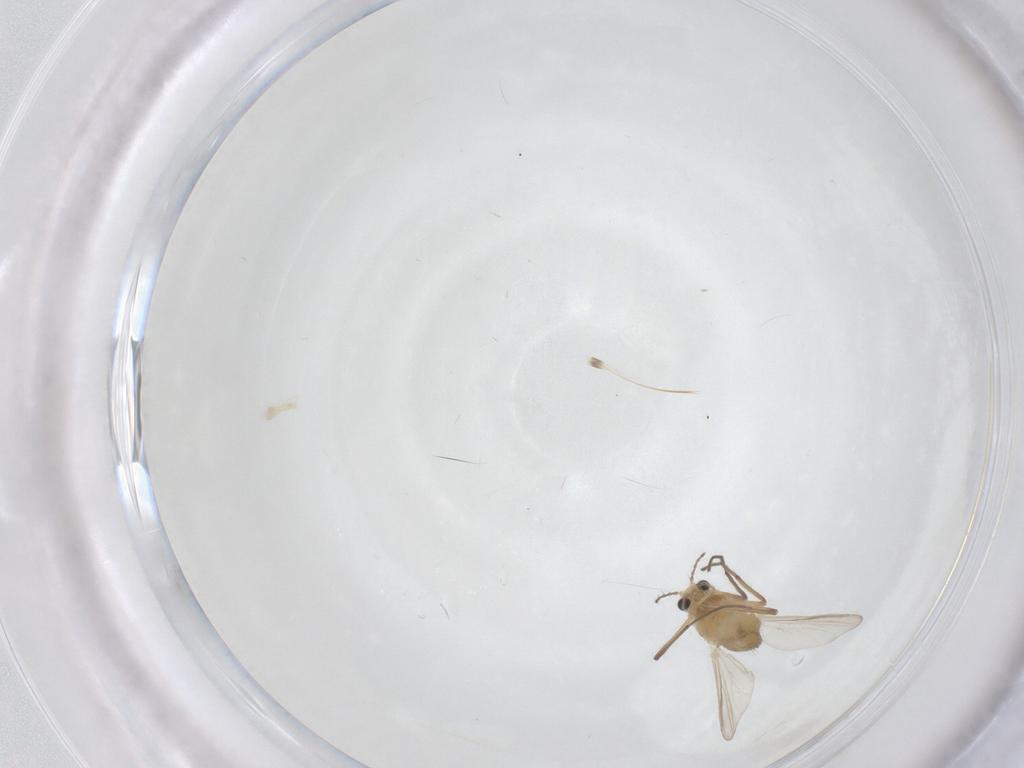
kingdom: Animalia
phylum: Arthropoda
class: Insecta
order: Diptera
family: Chironomidae
